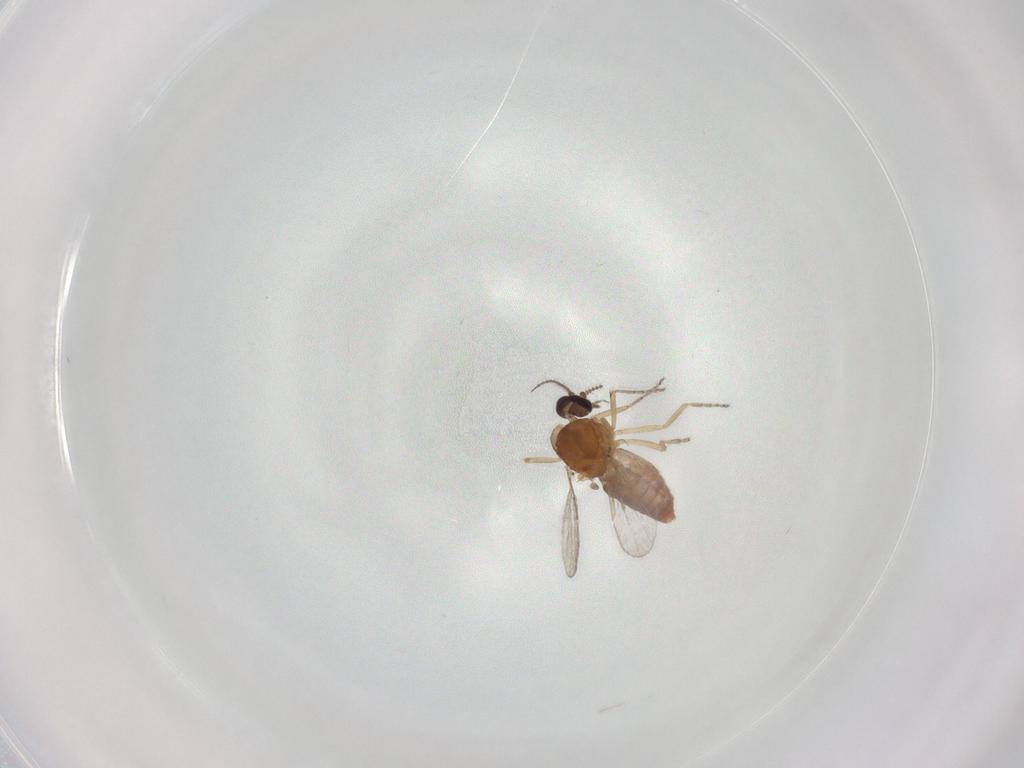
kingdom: Animalia
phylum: Arthropoda
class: Insecta
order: Diptera
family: Ceratopogonidae
